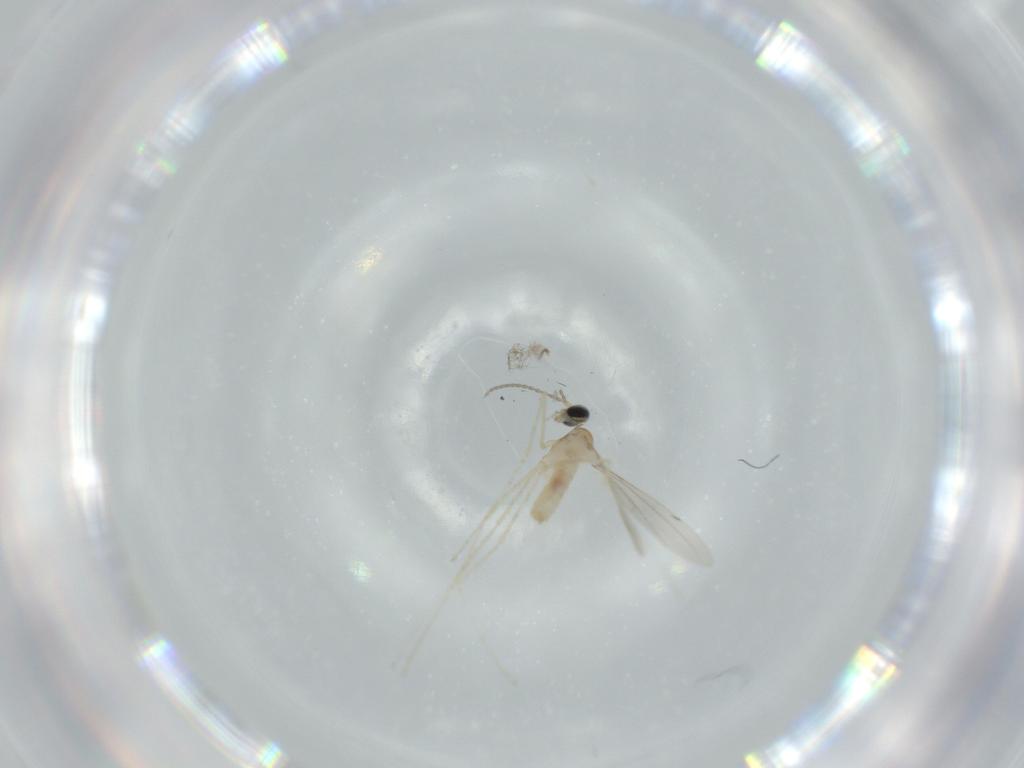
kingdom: Animalia
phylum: Arthropoda
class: Insecta
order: Diptera
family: Cecidomyiidae
